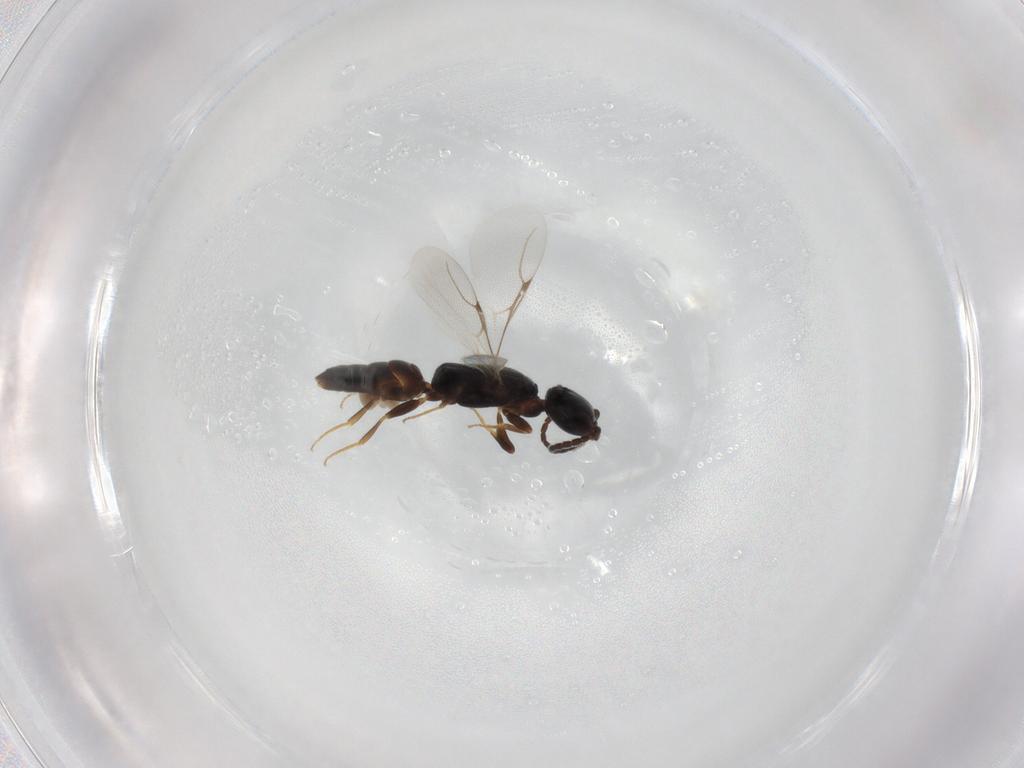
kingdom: Animalia
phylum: Arthropoda
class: Insecta
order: Hymenoptera
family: Bethylidae
